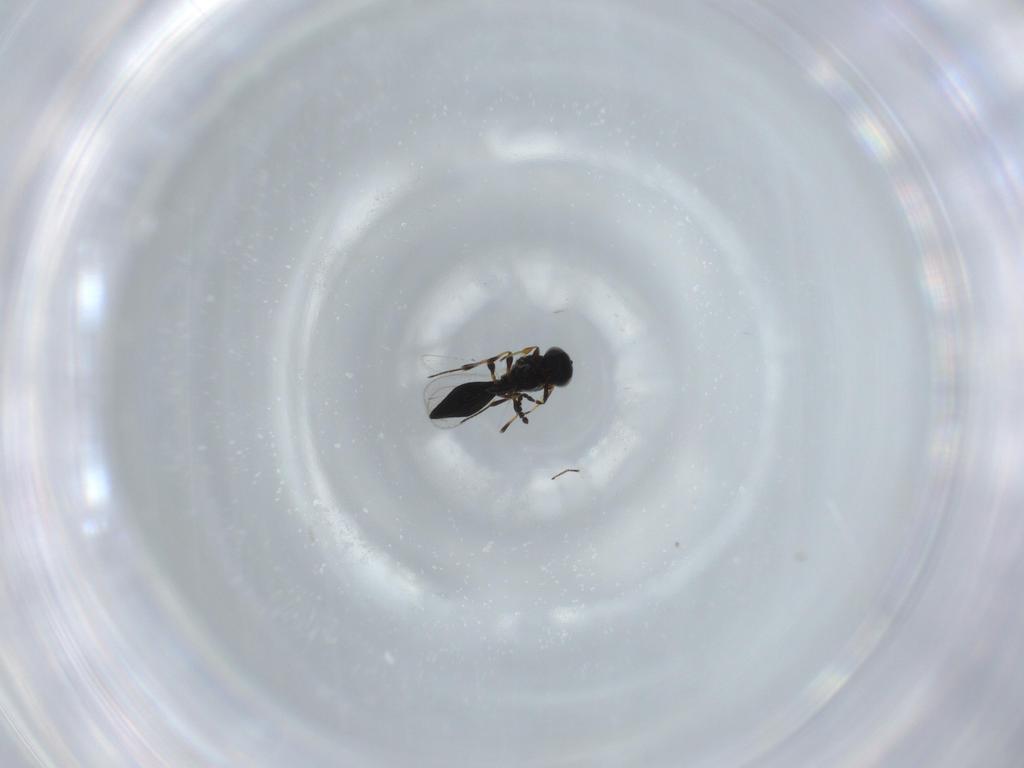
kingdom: Animalia
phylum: Arthropoda
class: Insecta
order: Hymenoptera
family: Platygastridae
